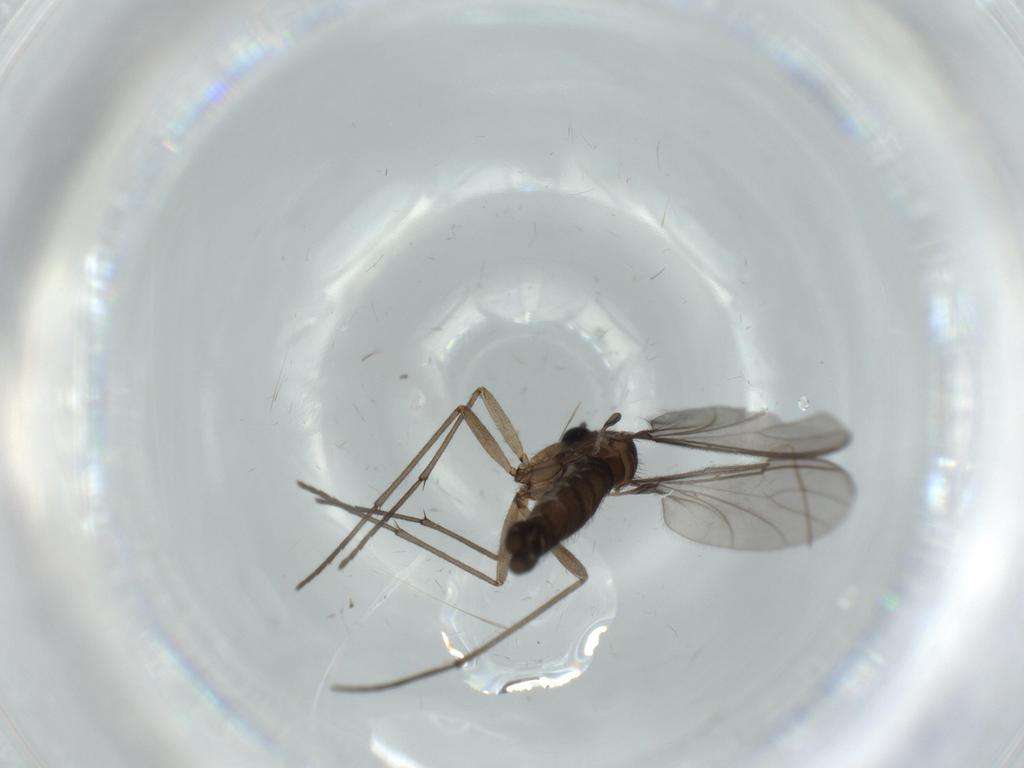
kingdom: Animalia
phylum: Arthropoda
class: Insecta
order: Diptera
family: Sciaridae
